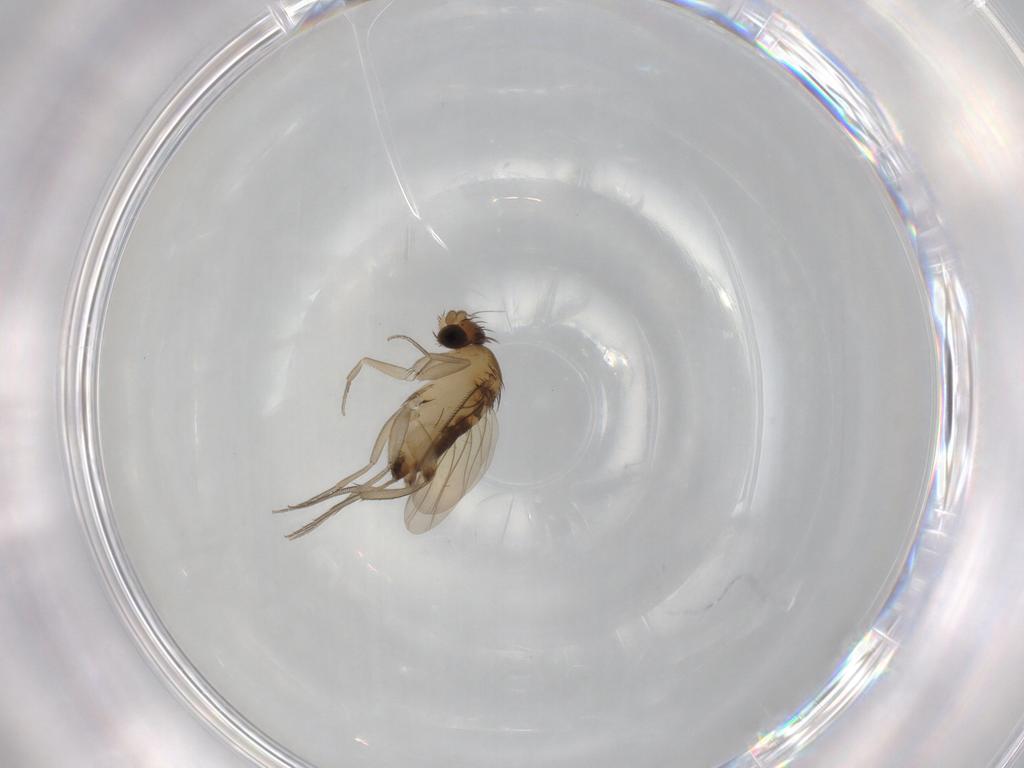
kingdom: Animalia
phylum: Arthropoda
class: Insecta
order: Diptera
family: Phoridae
